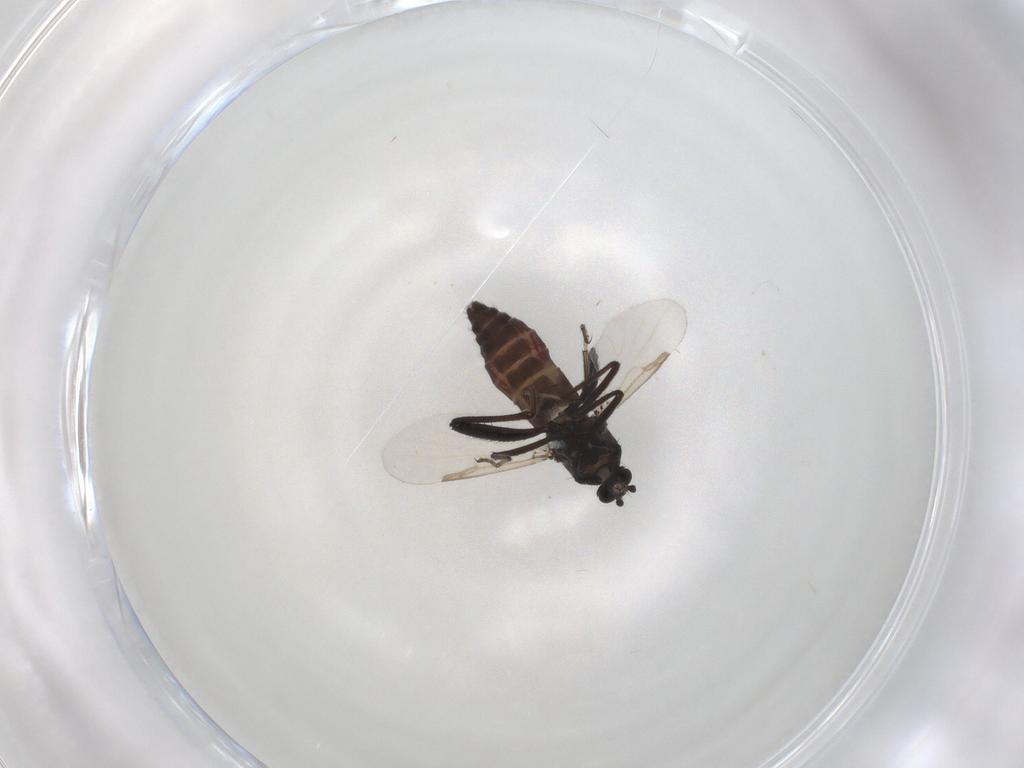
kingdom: Animalia
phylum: Arthropoda
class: Insecta
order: Diptera
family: Ceratopogonidae
